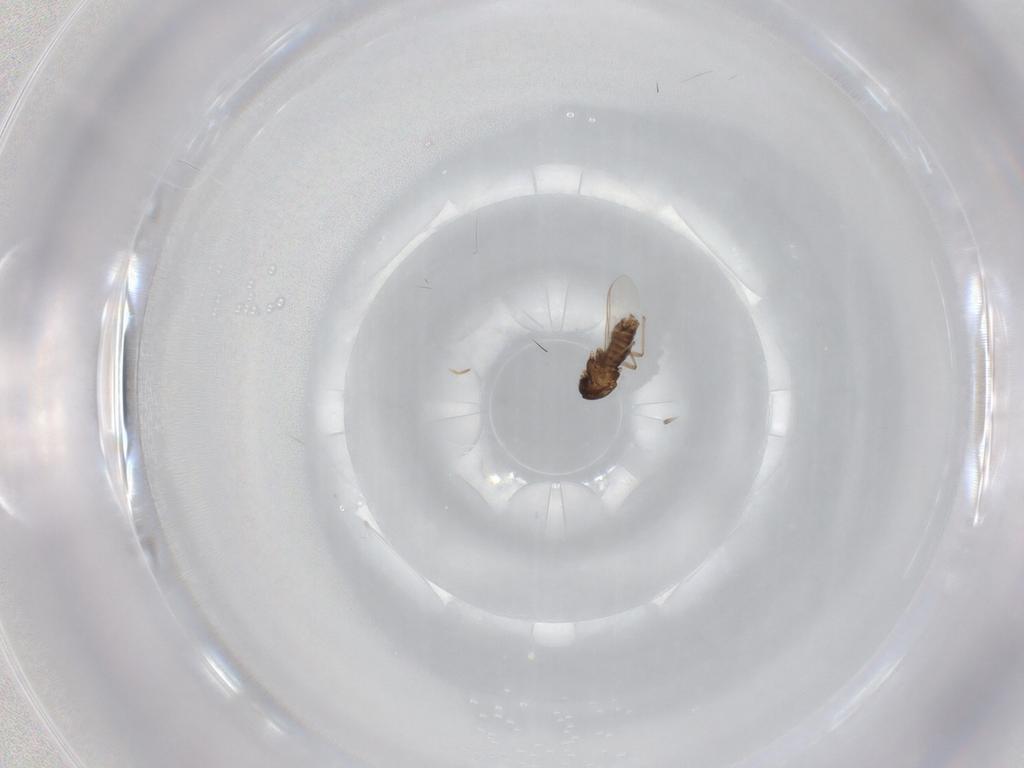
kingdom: Animalia
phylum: Arthropoda
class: Insecta
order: Diptera
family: Chironomidae
